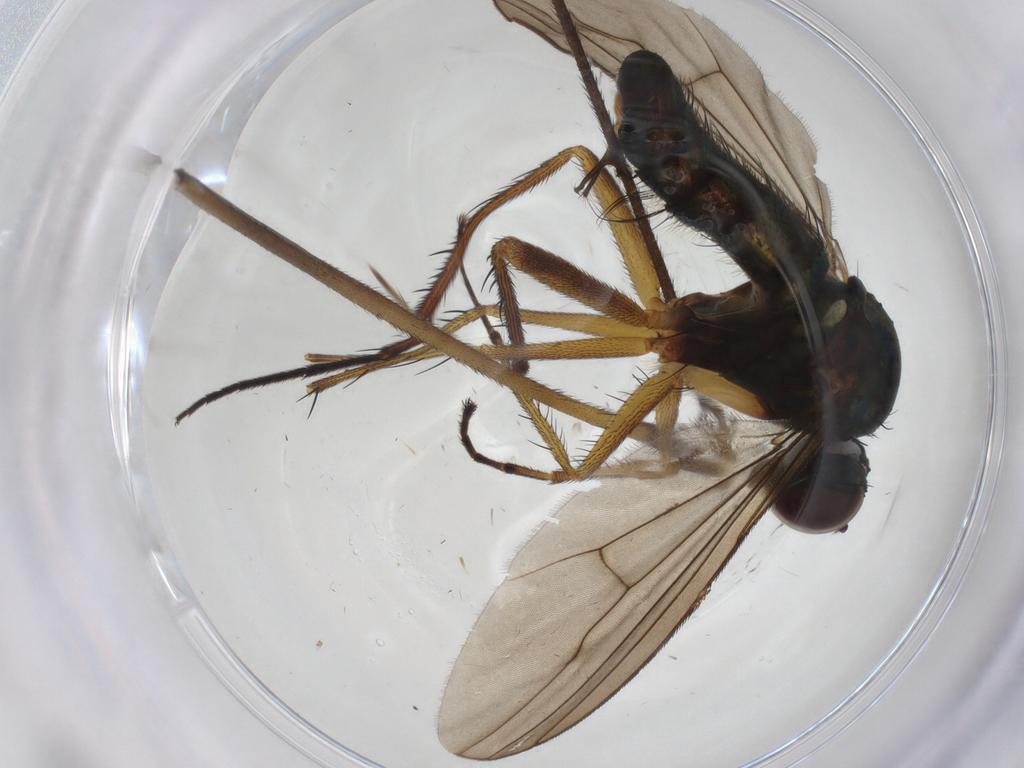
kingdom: Animalia
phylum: Arthropoda
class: Insecta
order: Diptera
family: Limoniidae
